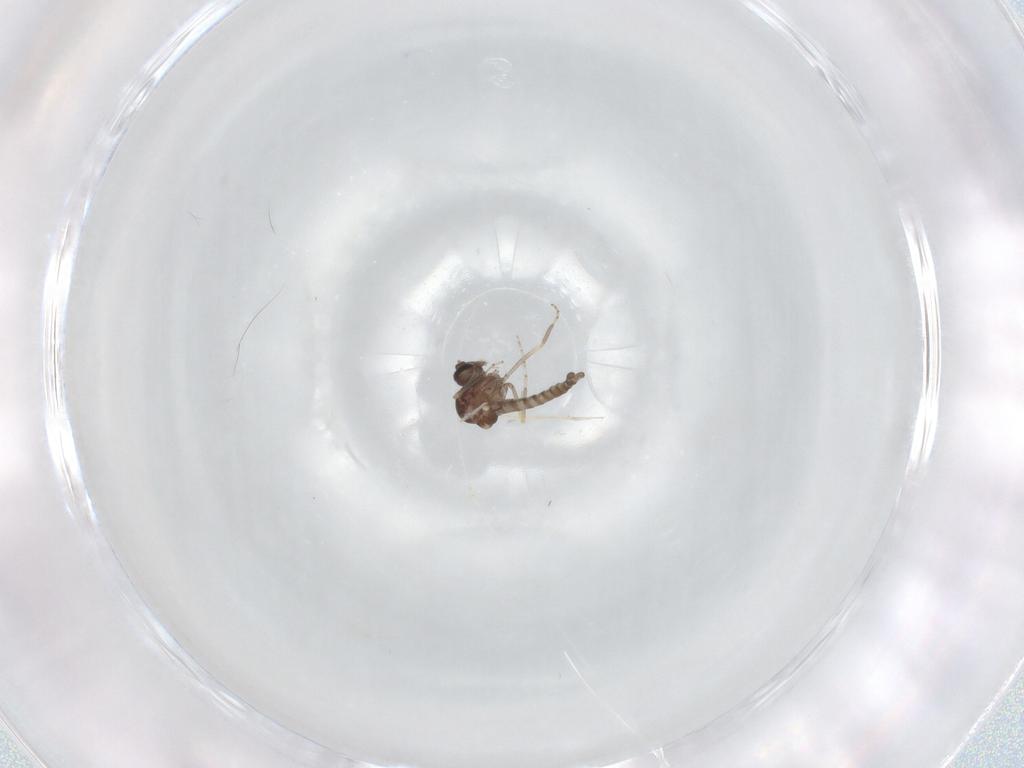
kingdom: Animalia
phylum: Arthropoda
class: Insecta
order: Diptera
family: Ceratopogonidae
